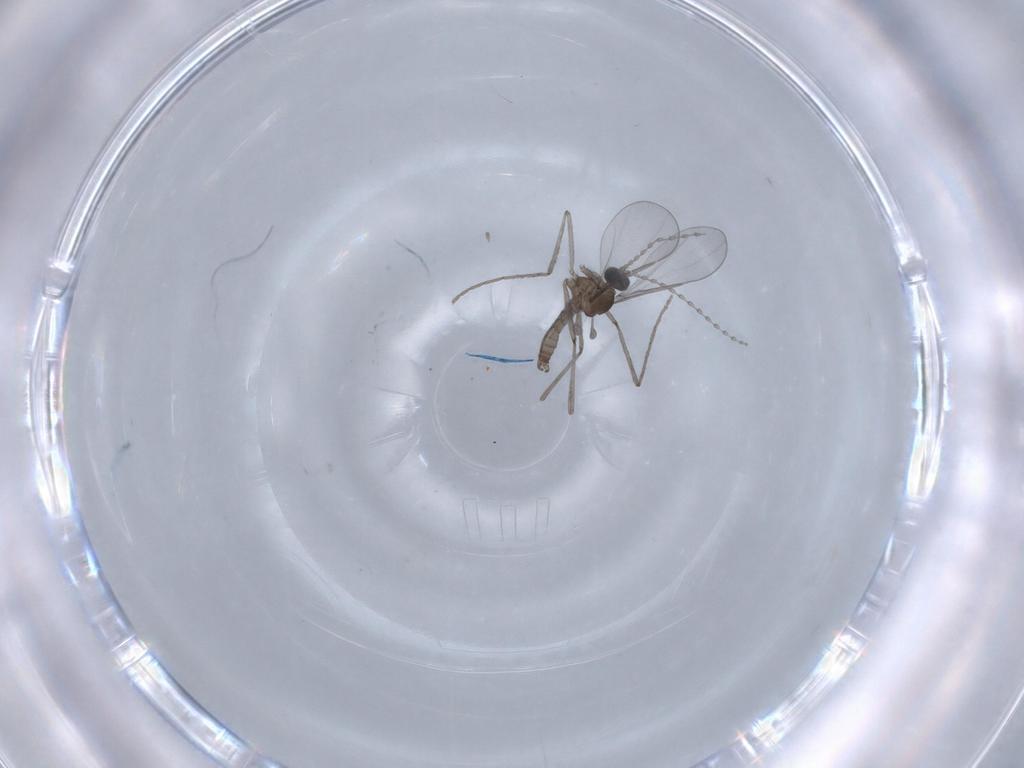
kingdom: Animalia
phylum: Arthropoda
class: Insecta
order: Diptera
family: Cecidomyiidae
